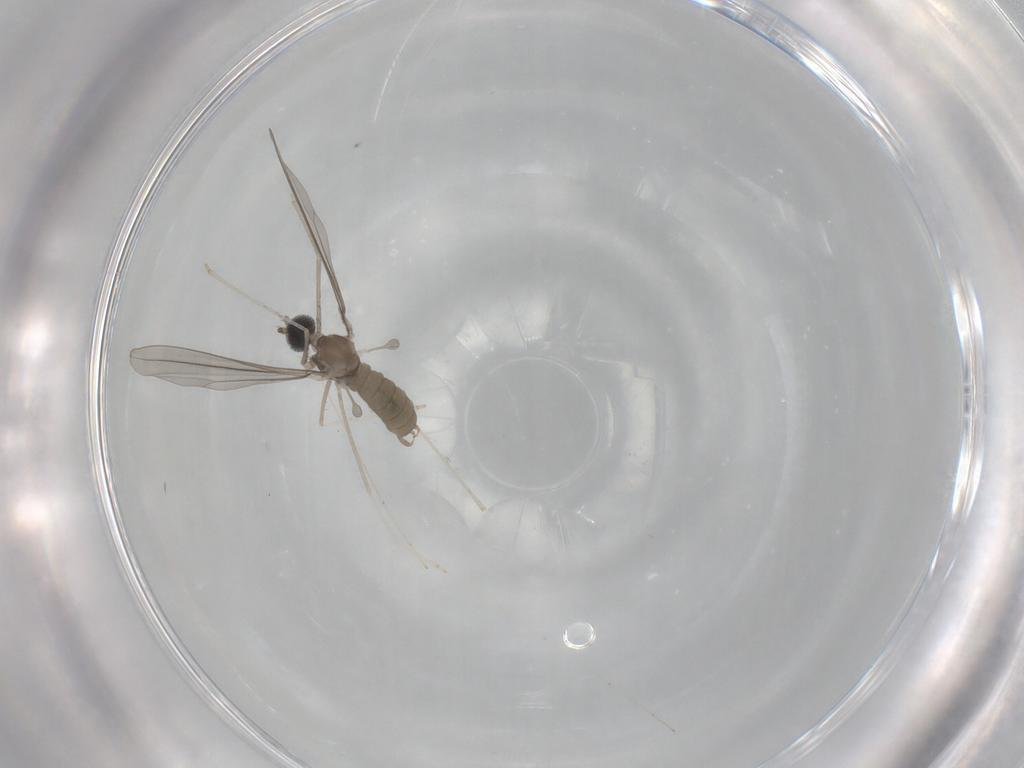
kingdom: Animalia
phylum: Arthropoda
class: Insecta
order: Diptera
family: Cecidomyiidae
